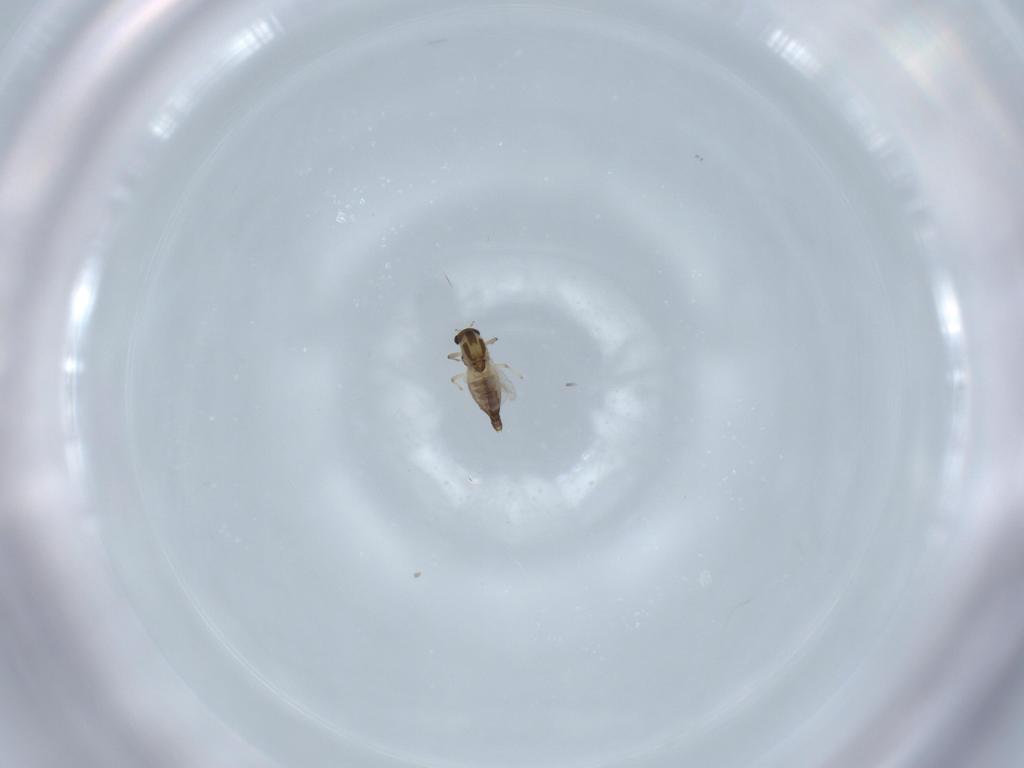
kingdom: Animalia
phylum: Arthropoda
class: Insecta
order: Diptera
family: Chironomidae
